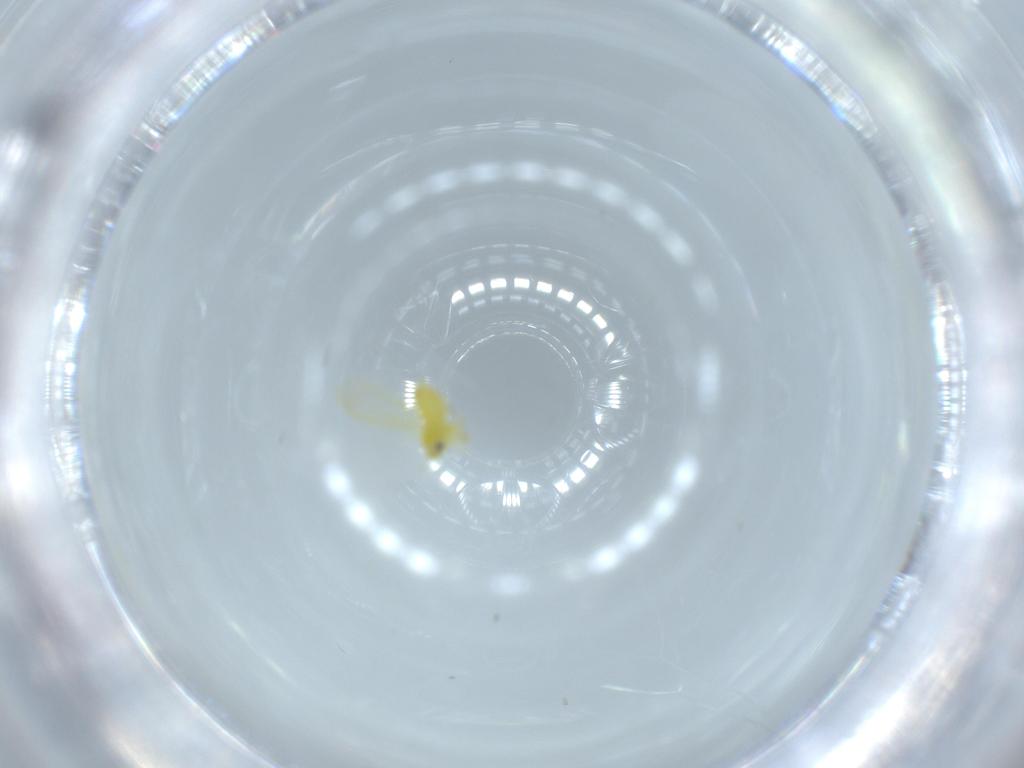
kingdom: Animalia
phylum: Arthropoda
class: Insecta
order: Hemiptera
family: Aleyrodidae
